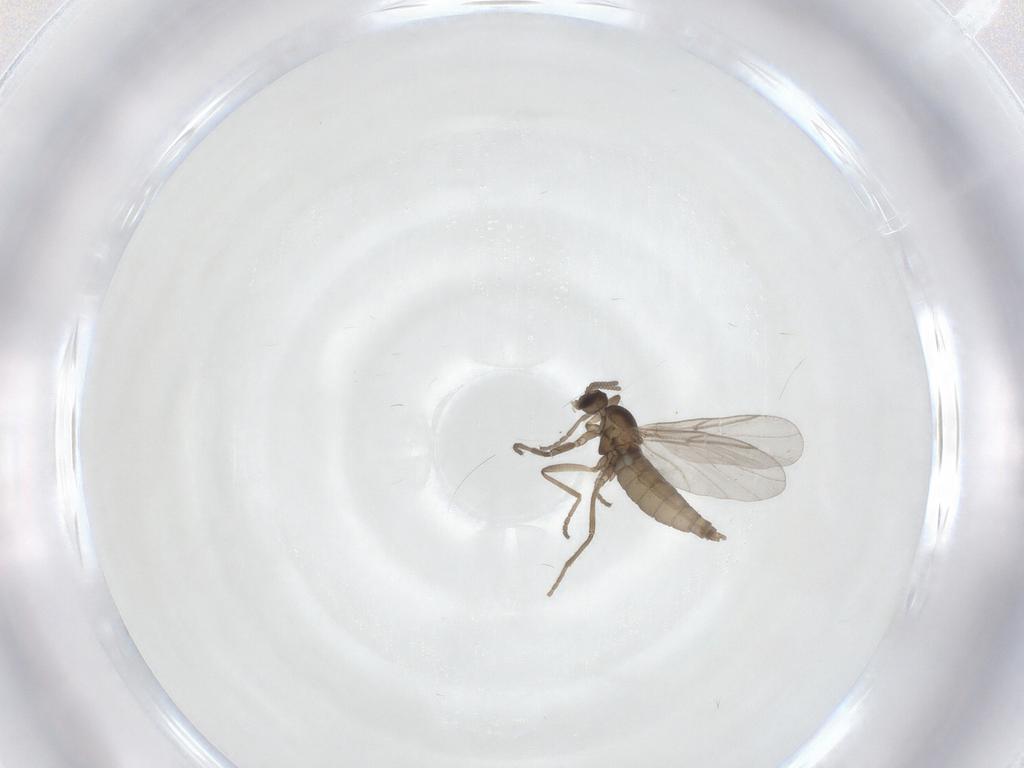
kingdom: Animalia
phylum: Arthropoda
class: Insecta
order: Diptera
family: Cecidomyiidae
